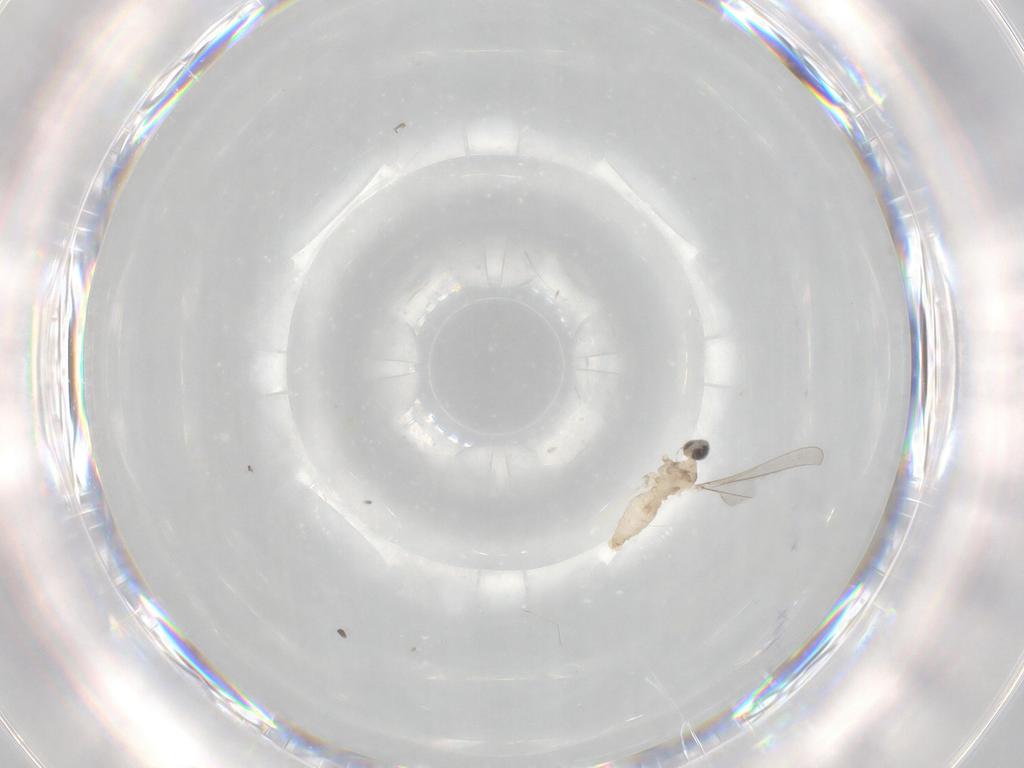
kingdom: Animalia
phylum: Arthropoda
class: Insecta
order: Diptera
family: Cecidomyiidae
